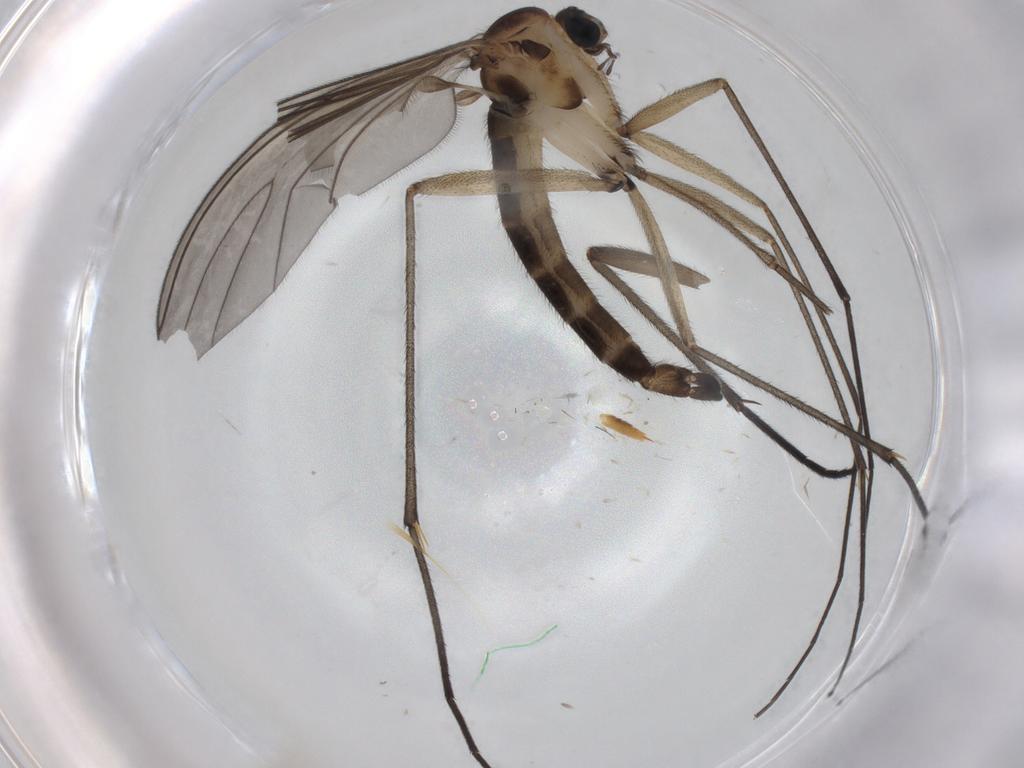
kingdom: Animalia
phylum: Arthropoda
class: Insecta
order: Diptera
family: Sciaridae
